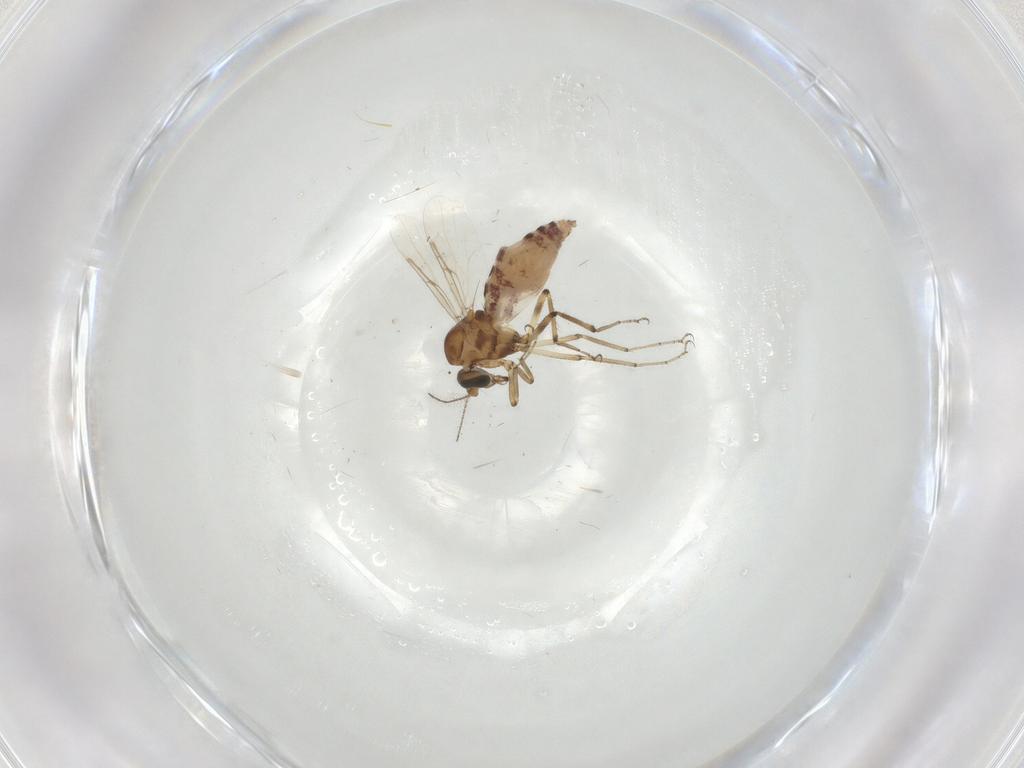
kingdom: Animalia
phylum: Arthropoda
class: Insecta
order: Diptera
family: Ceratopogonidae
